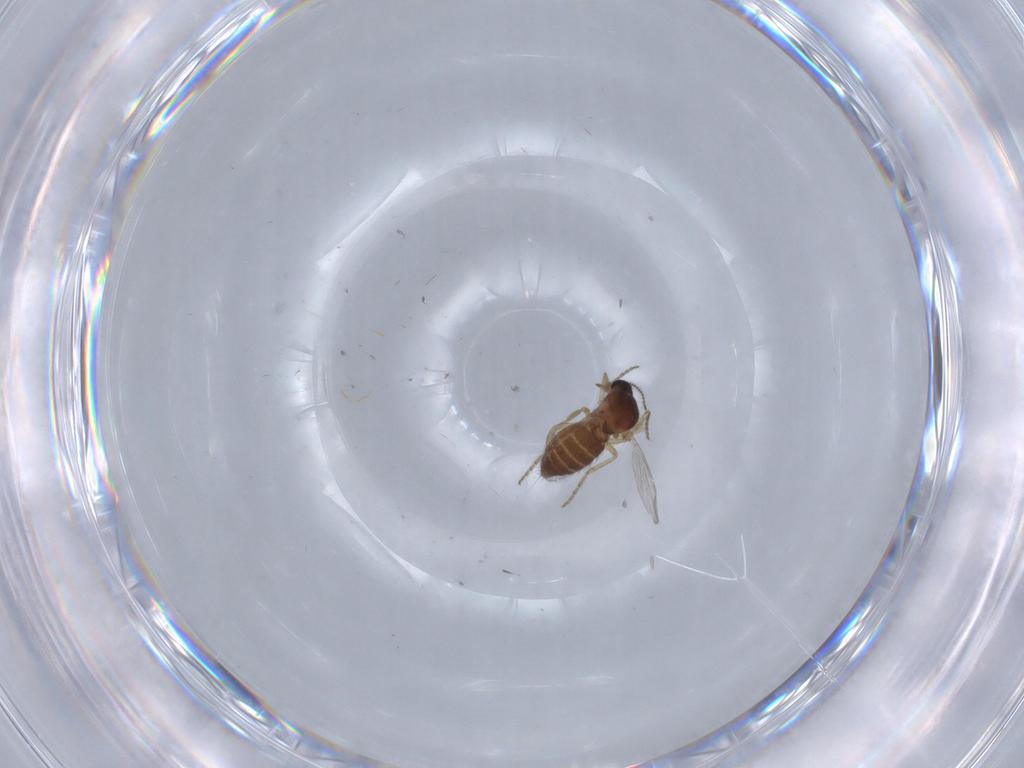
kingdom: Animalia
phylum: Arthropoda
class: Insecta
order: Diptera
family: Ceratopogonidae
